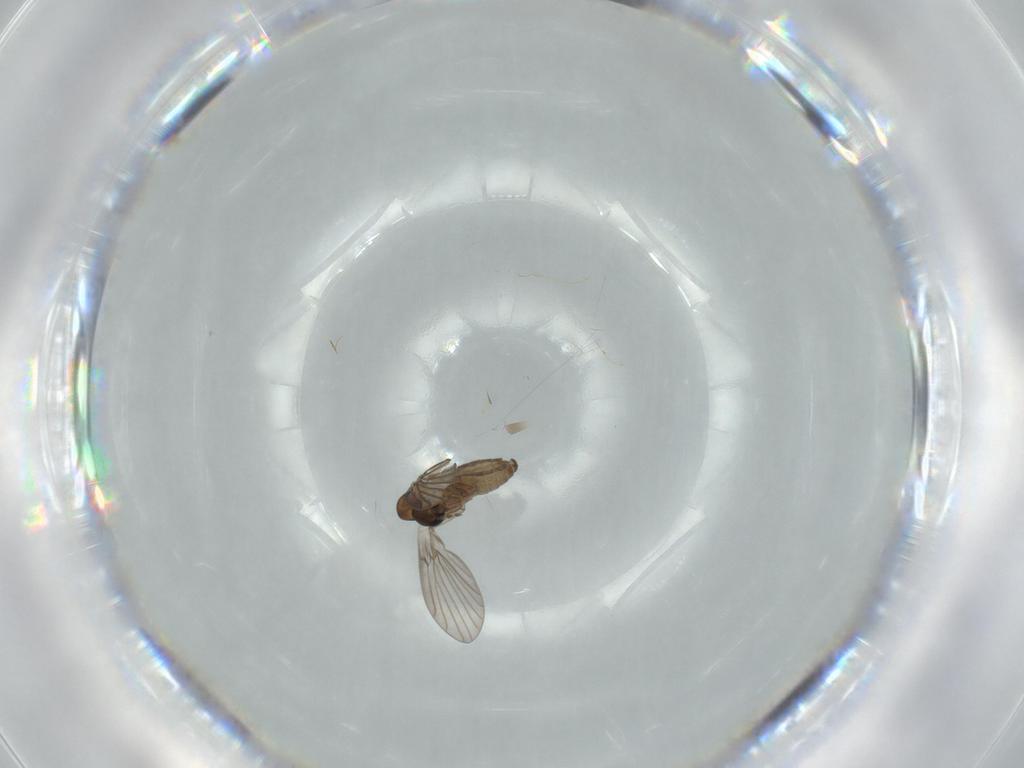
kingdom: Animalia
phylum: Arthropoda
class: Insecta
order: Diptera
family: Psychodidae
